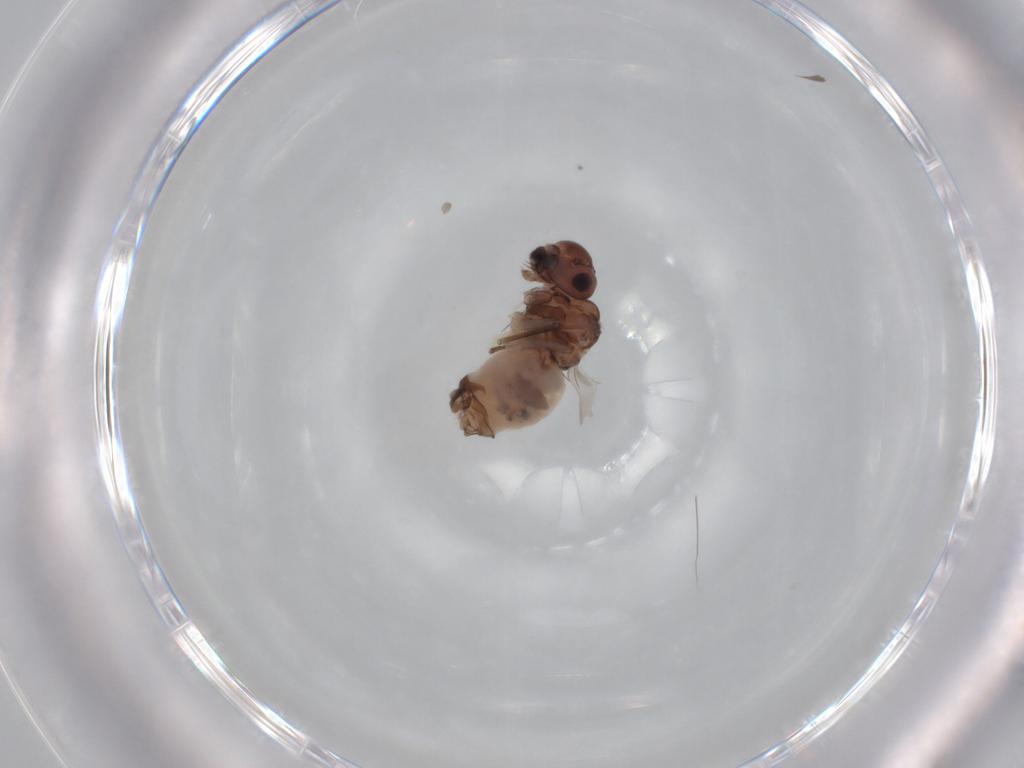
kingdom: Animalia
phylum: Arthropoda
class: Insecta
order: Psocodea
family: Peripsocidae
